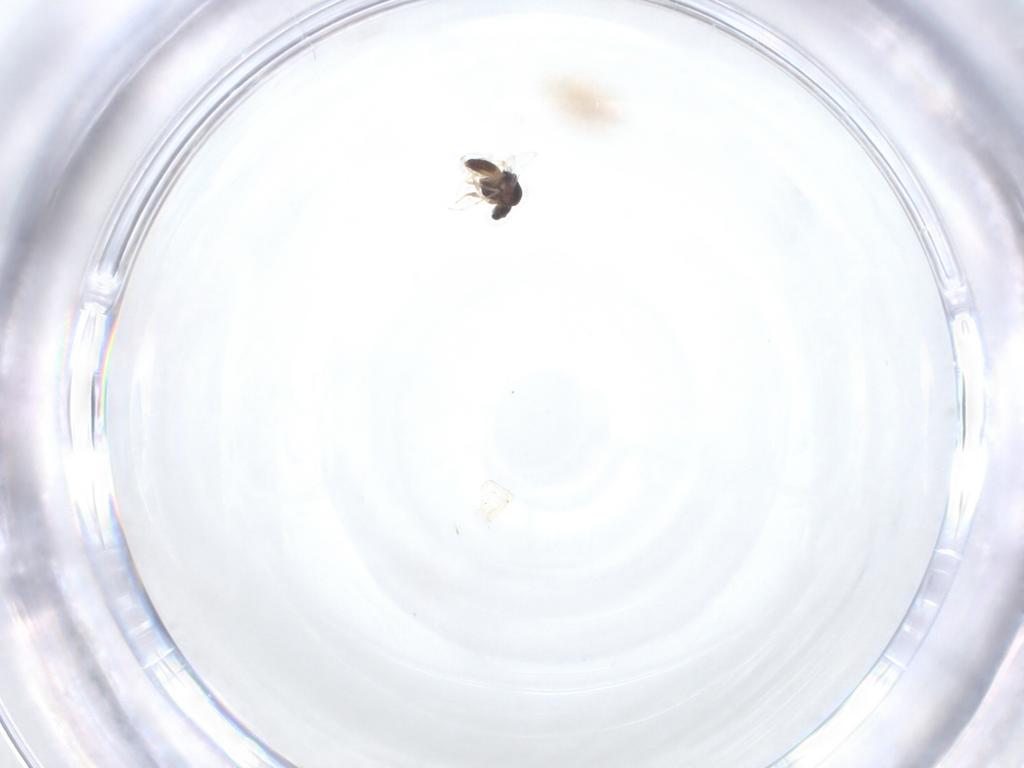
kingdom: Animalia
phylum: Arthropoda
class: Insecta
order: Diptera
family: Chironomidae
